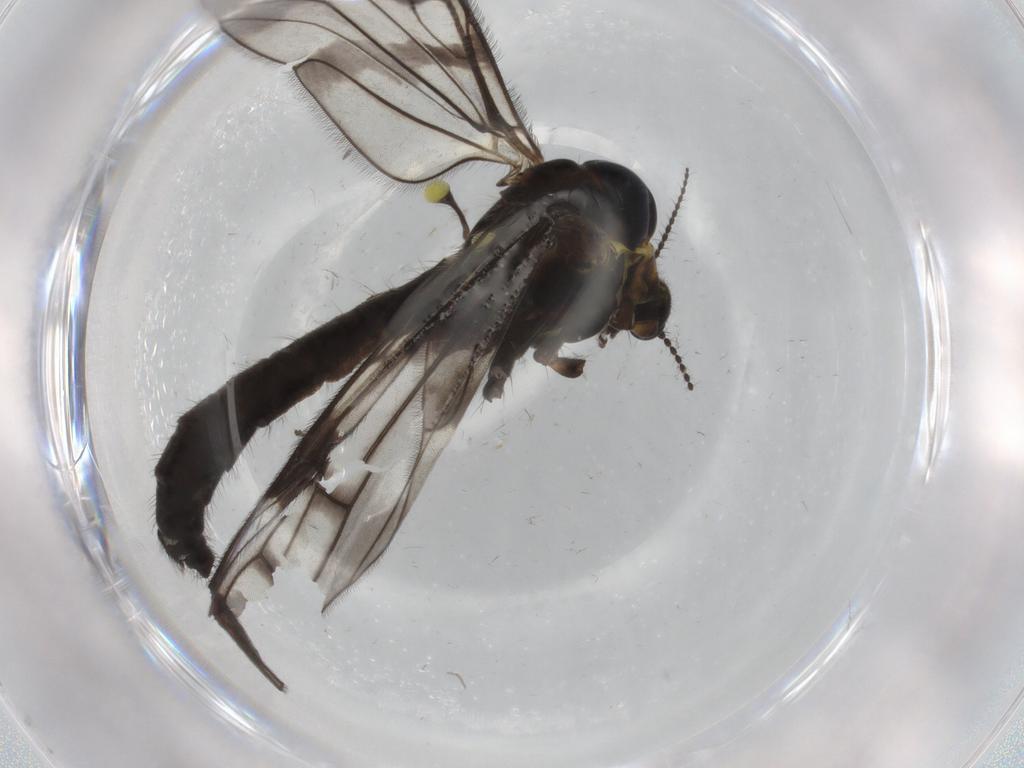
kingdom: Animalia
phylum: Arthropoda
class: Insecta
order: Diptera
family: Limoniidae
